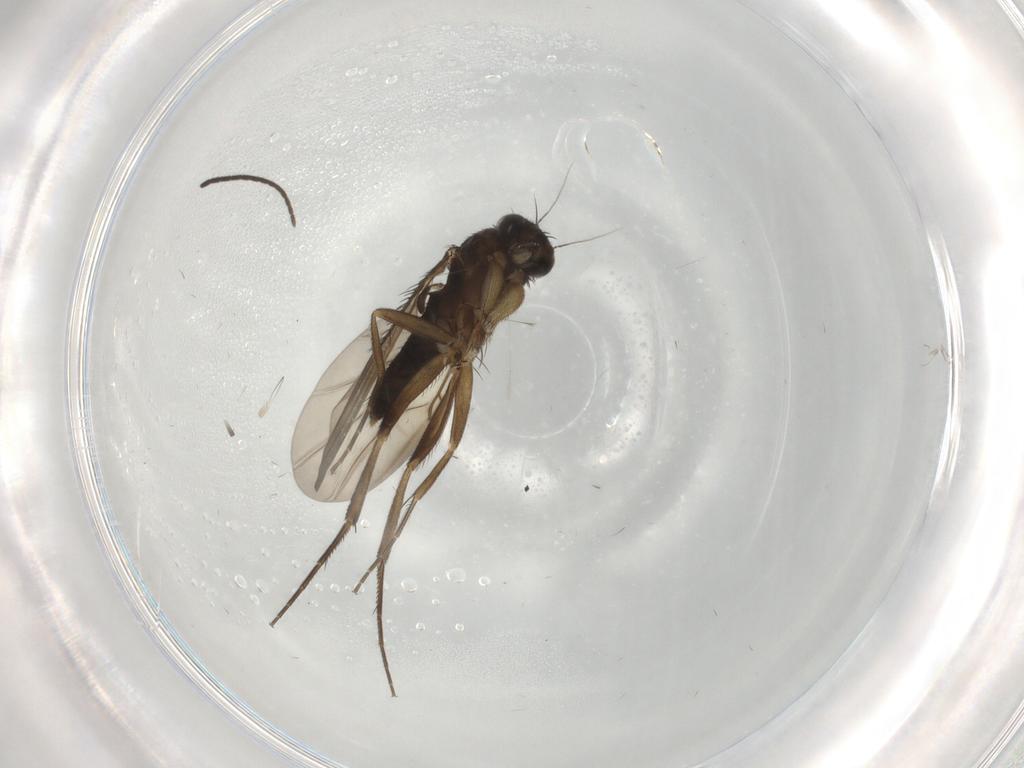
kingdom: Animalia
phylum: Arthropoda
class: Insecta
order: Diptera
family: Phoridae
